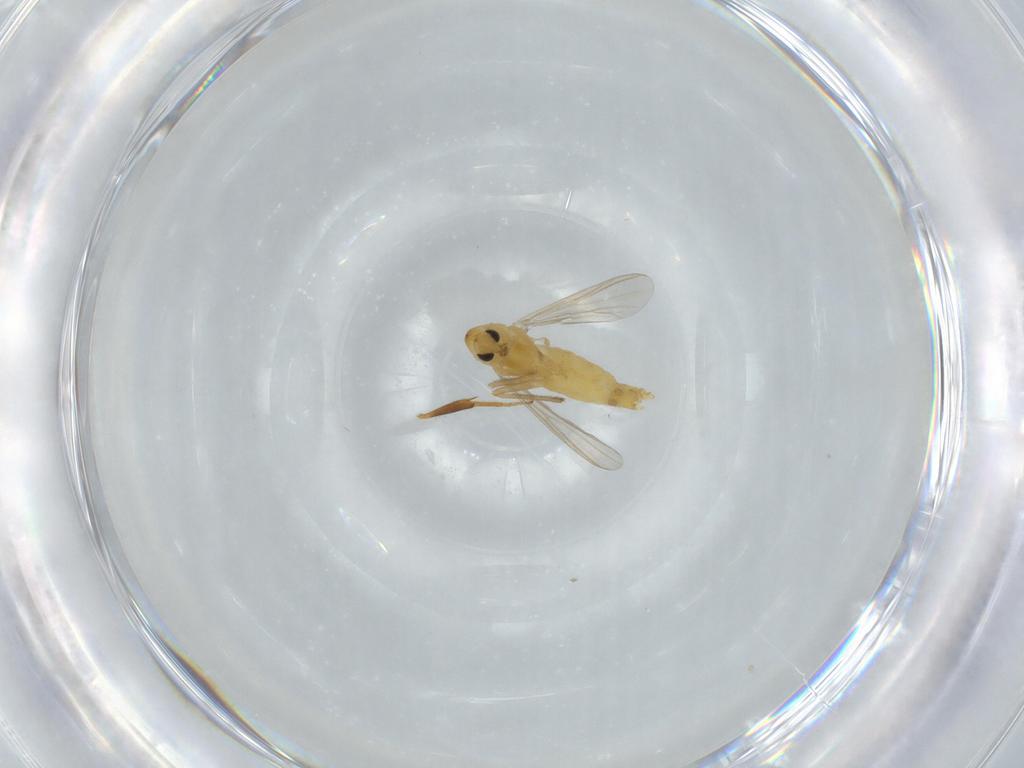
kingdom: Animalia
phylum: Arthropoda
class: Insecta
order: Diptera
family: Chironomidae
